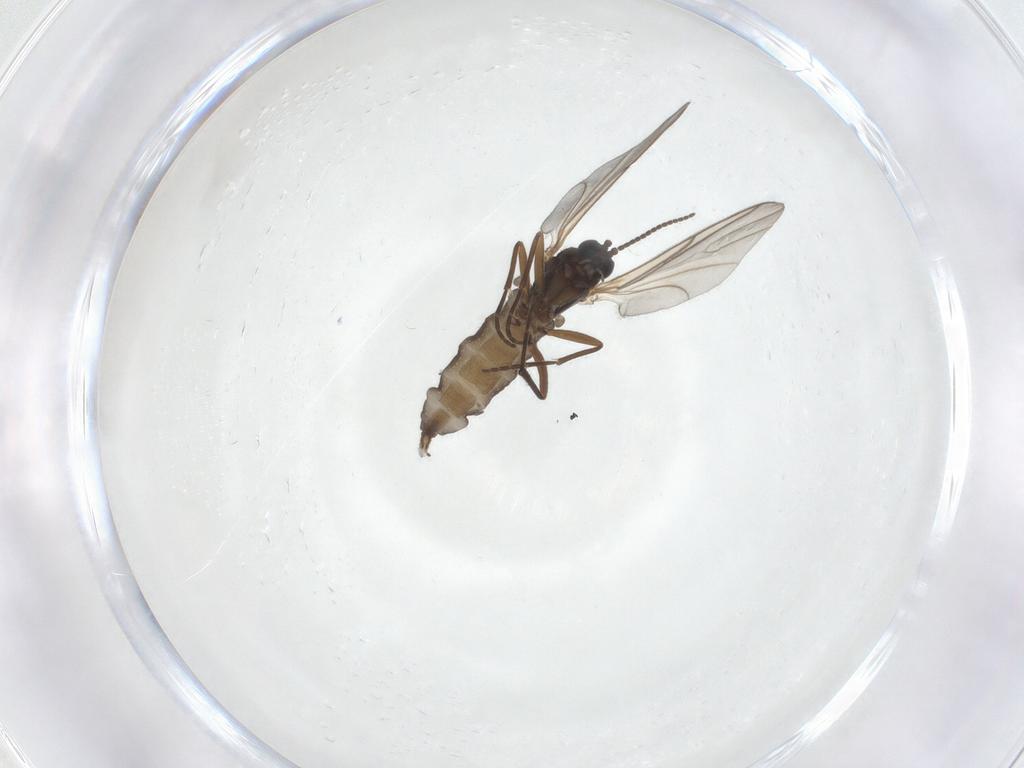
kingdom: Animalia
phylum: Arthropoda
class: Insecta
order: Diptera
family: Sciaridae
